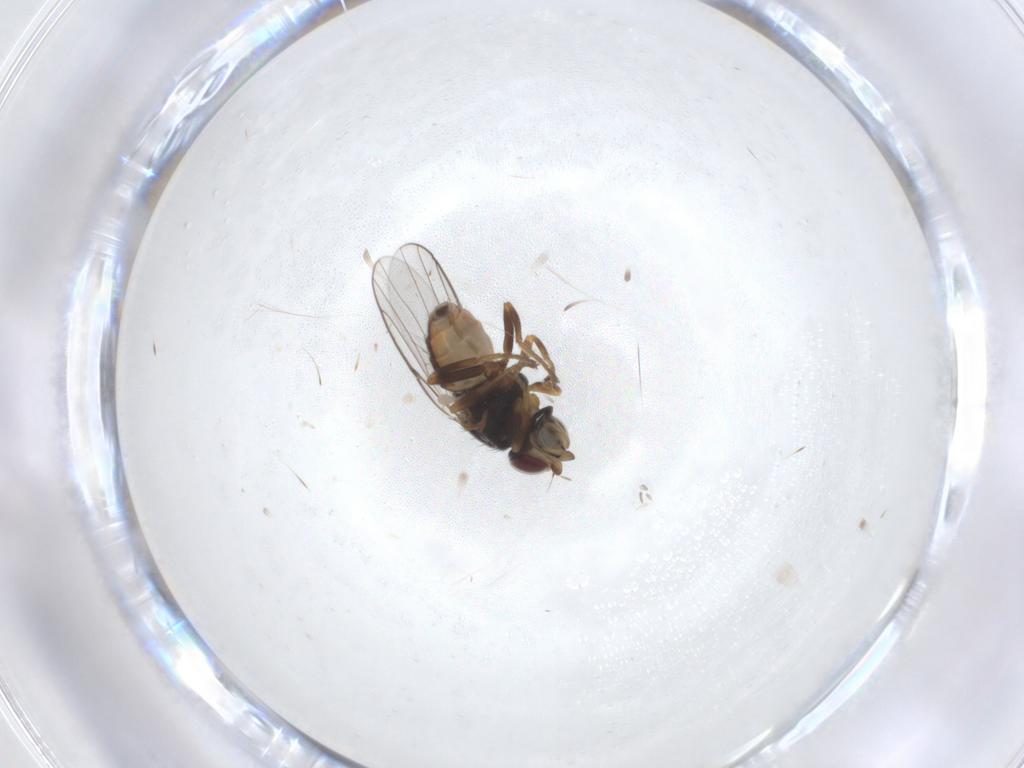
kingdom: Animalia
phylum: Arthropoda
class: Insecta
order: Diptera
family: Chloropidae
